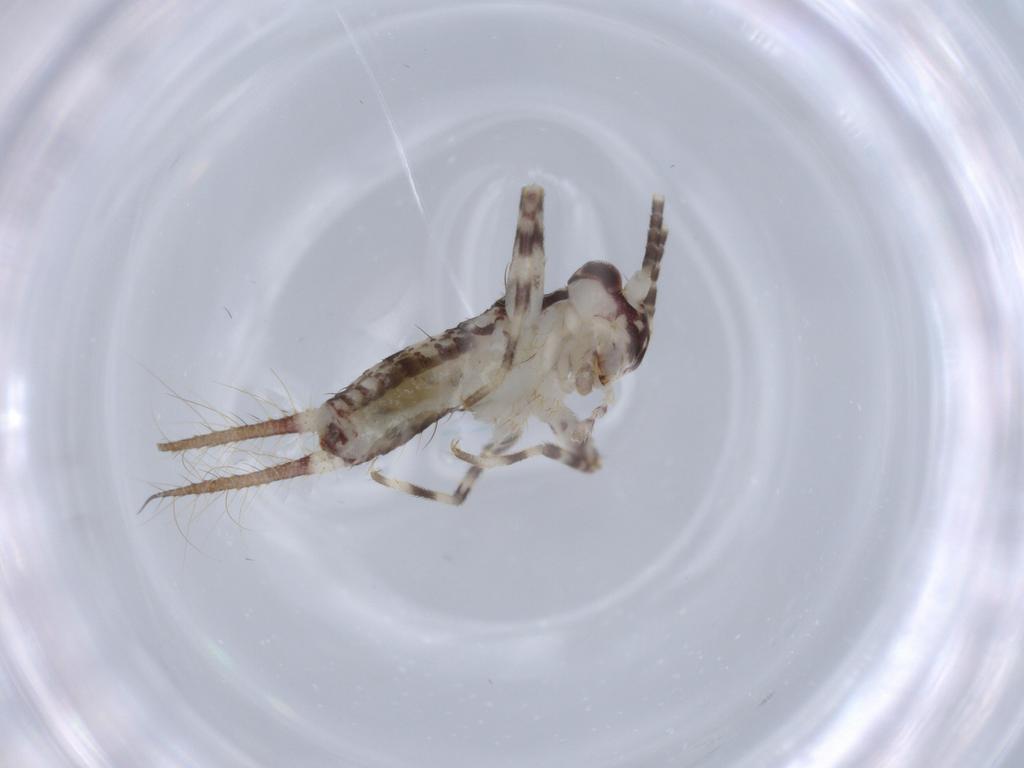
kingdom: Animalia
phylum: Arthropoda
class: Insecta
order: Orthoptera
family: Gryllidae
